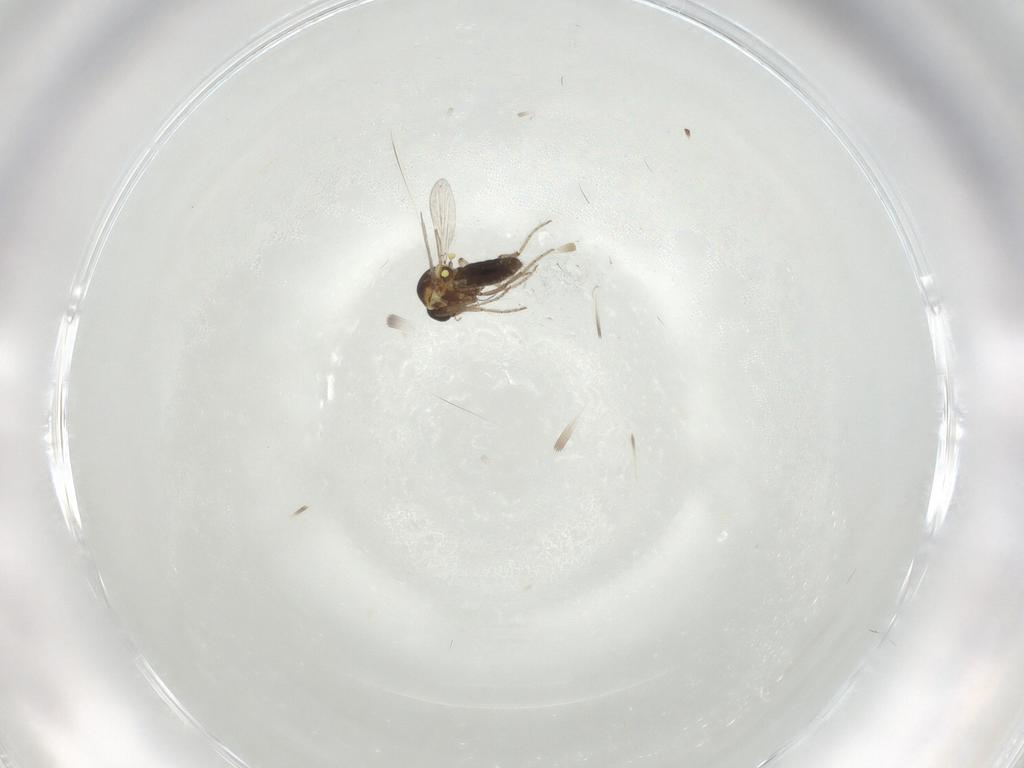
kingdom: Animalia
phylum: Arthropoda
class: Insecta
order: Diptera
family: Ceratopogonidae
